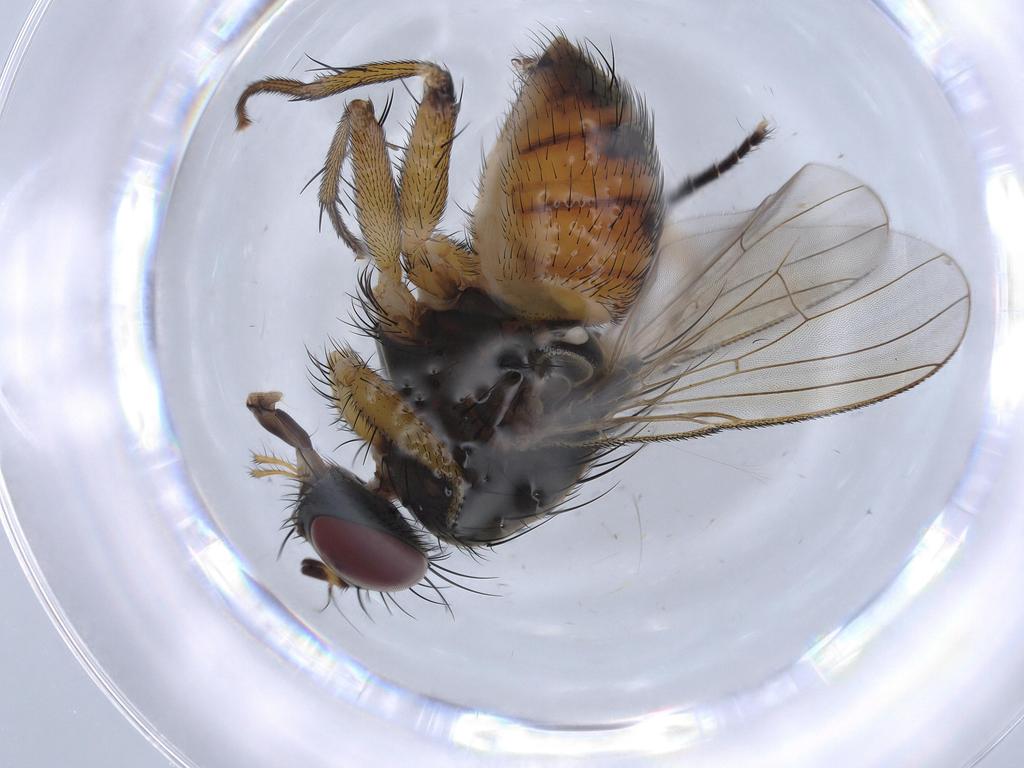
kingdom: Animalia
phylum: Arthropoda
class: Insecta
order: Diptera
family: Muscidae
